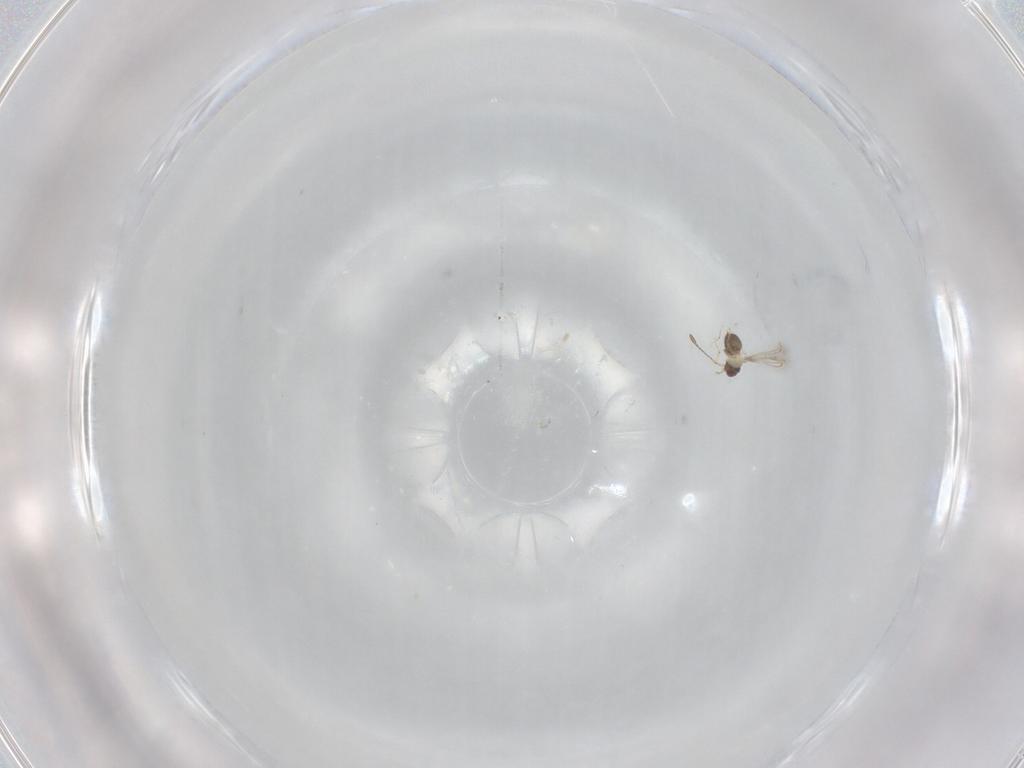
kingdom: Animalia
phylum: Arthropoda
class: Insecta
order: Hymenoptera
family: Mymaridae
